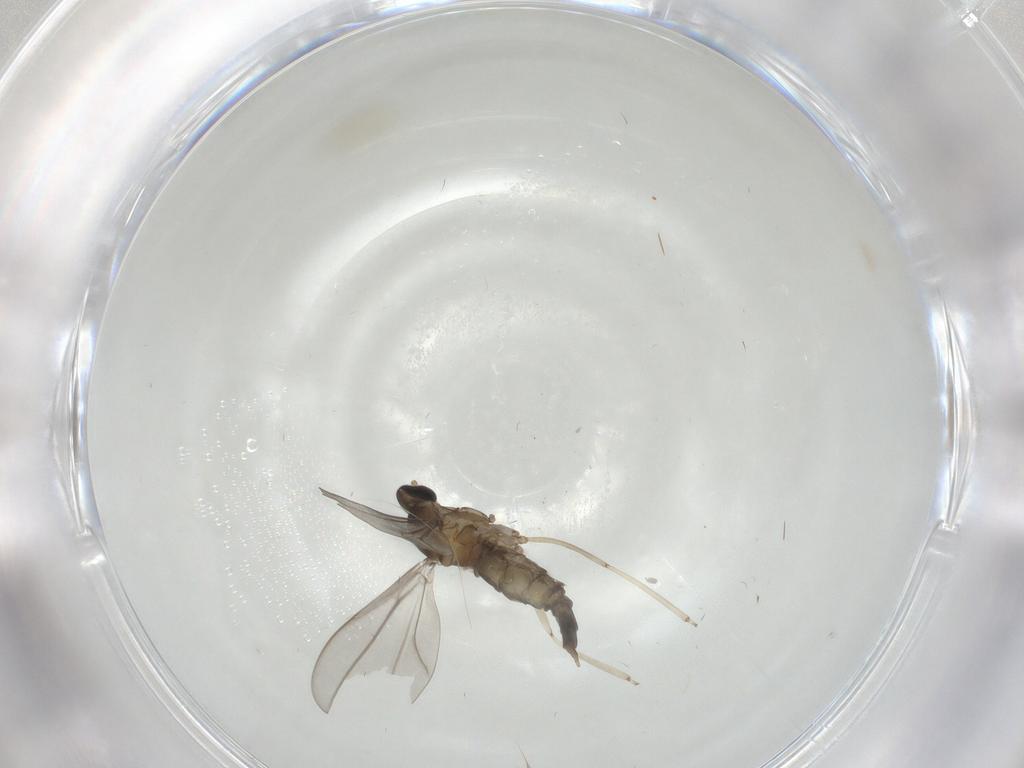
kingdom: Animalia
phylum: Arthropoda
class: Insecta
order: Diptera
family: Cecidomyiidae
